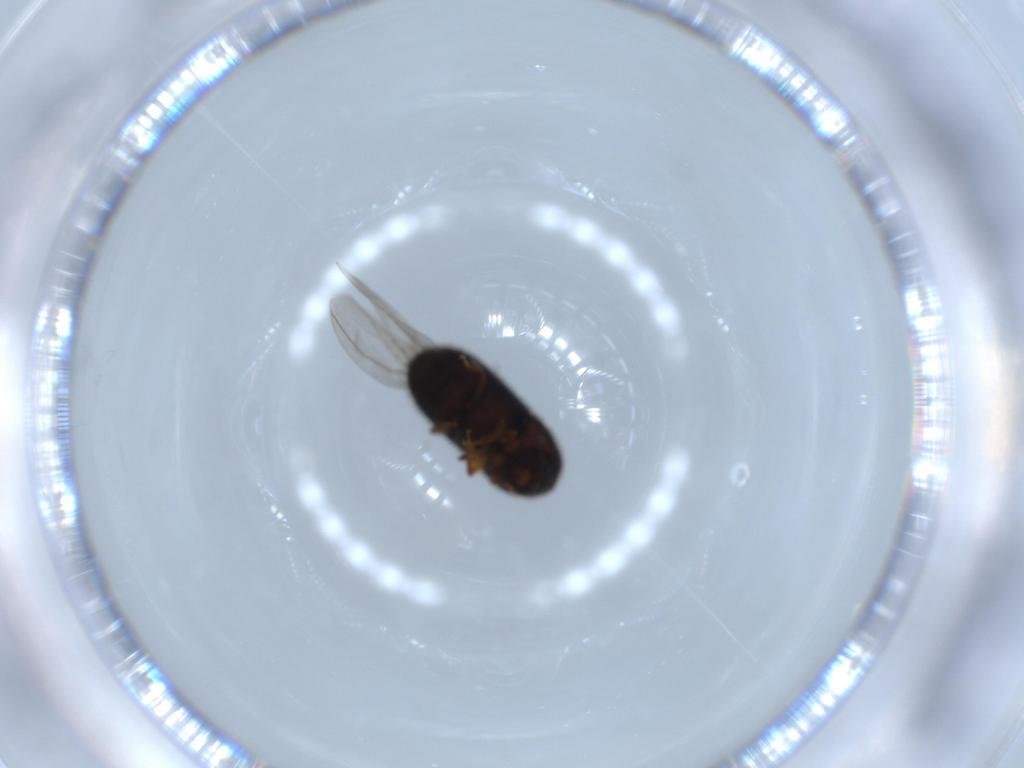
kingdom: Animalia
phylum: Arthropoda
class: Insecta
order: Coleoptera
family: Curculionidae
